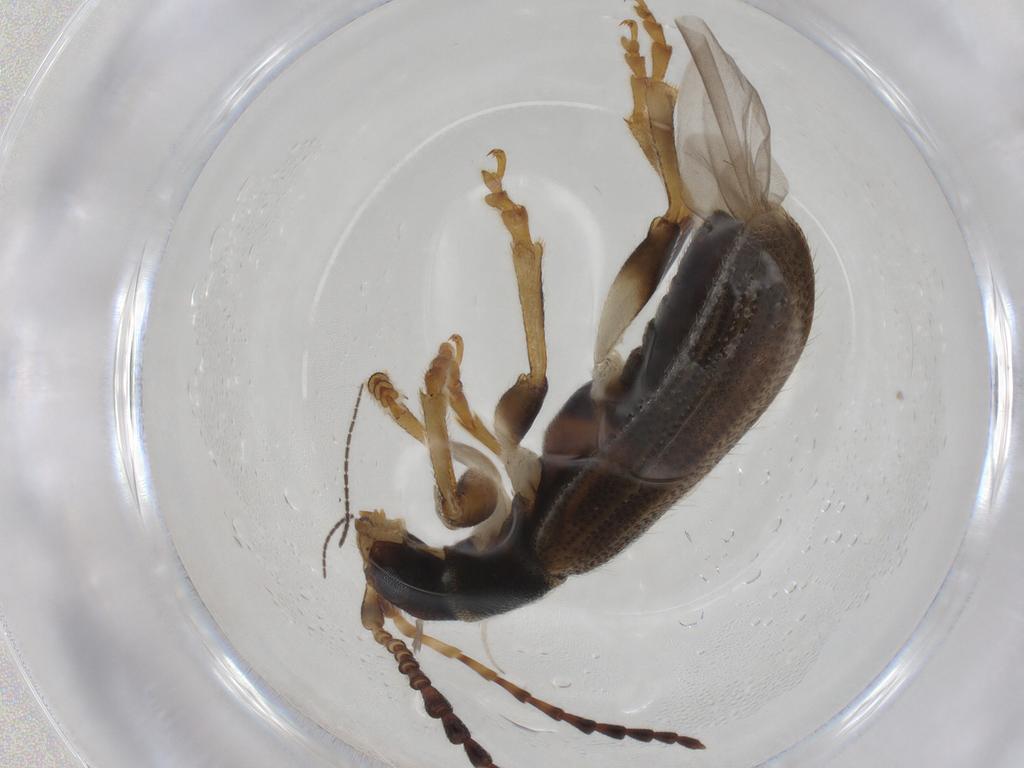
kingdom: Animalia
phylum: Arthropoda
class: Insecta
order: Coleoptera
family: Chrysomelidae
